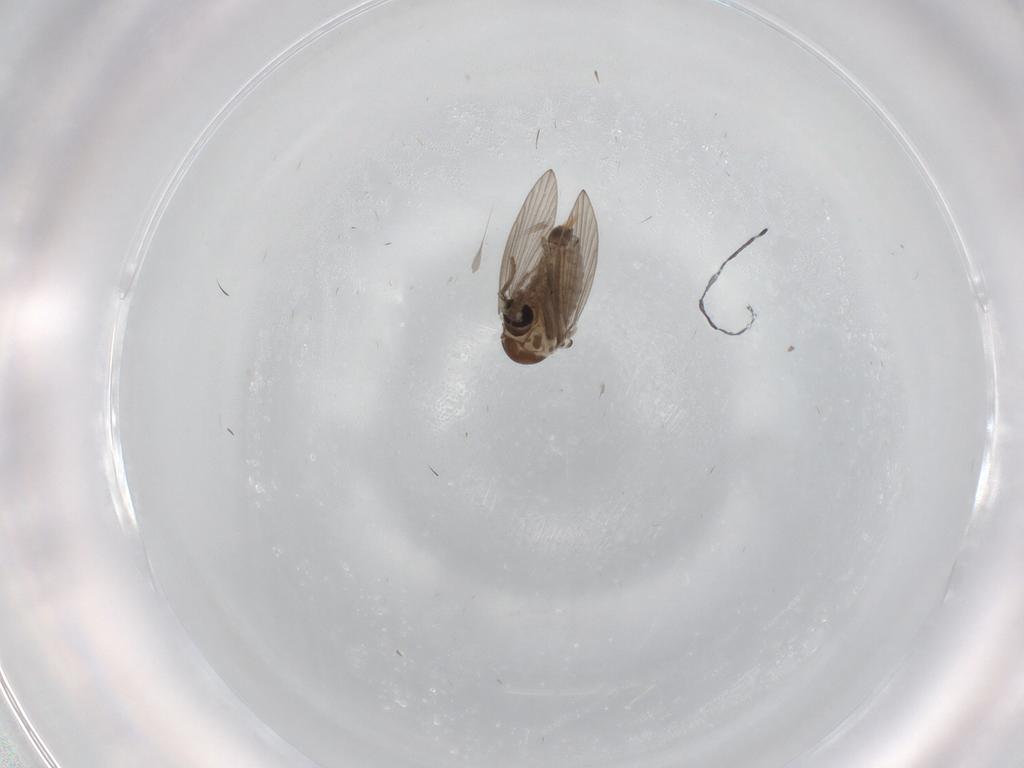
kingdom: Animalia
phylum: Arthropoda
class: Insecta
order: Diptera
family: Psychodidae
